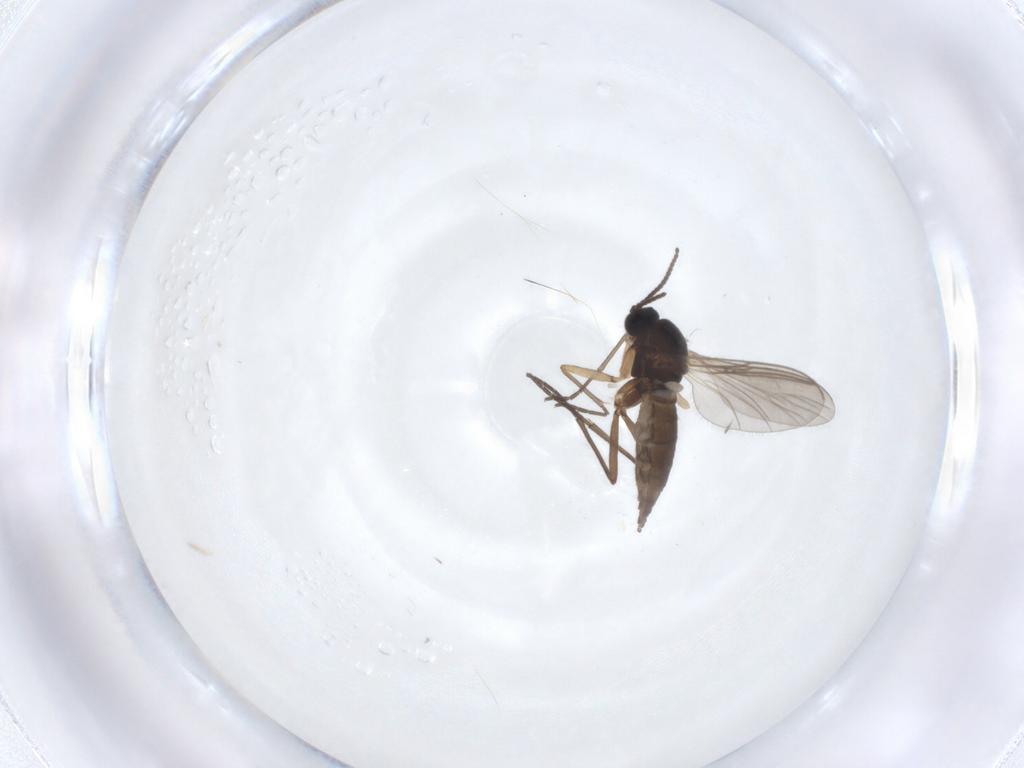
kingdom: Animalia
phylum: Arthropoda
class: Insecta
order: Diptera
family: Sciaridae
